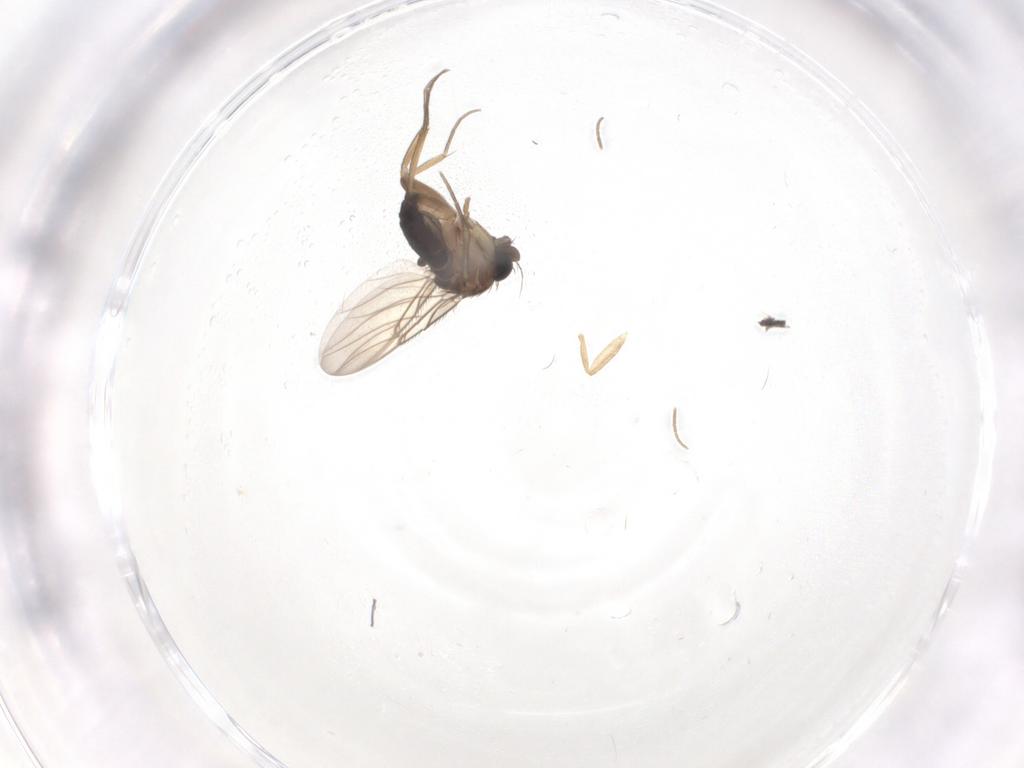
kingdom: Animalia
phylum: Arthropoda
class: Insecta
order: Diptera
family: Phoridae
